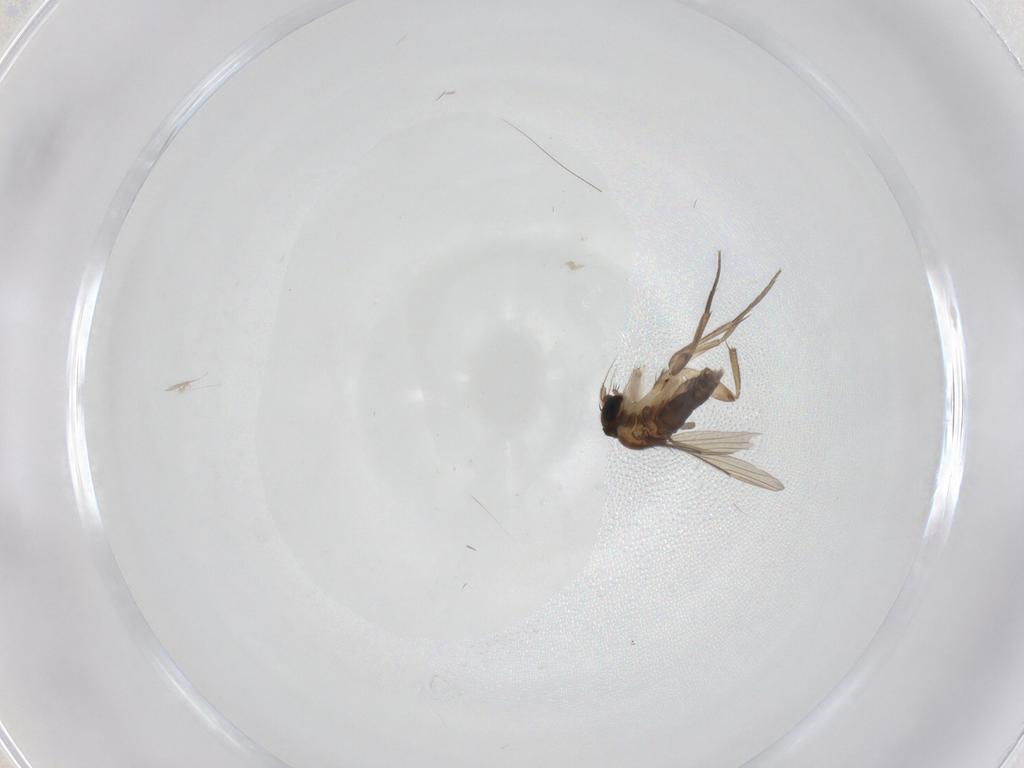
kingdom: Animalia
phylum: Arthropoda
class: Insecta
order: Diptera
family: Phoridae
